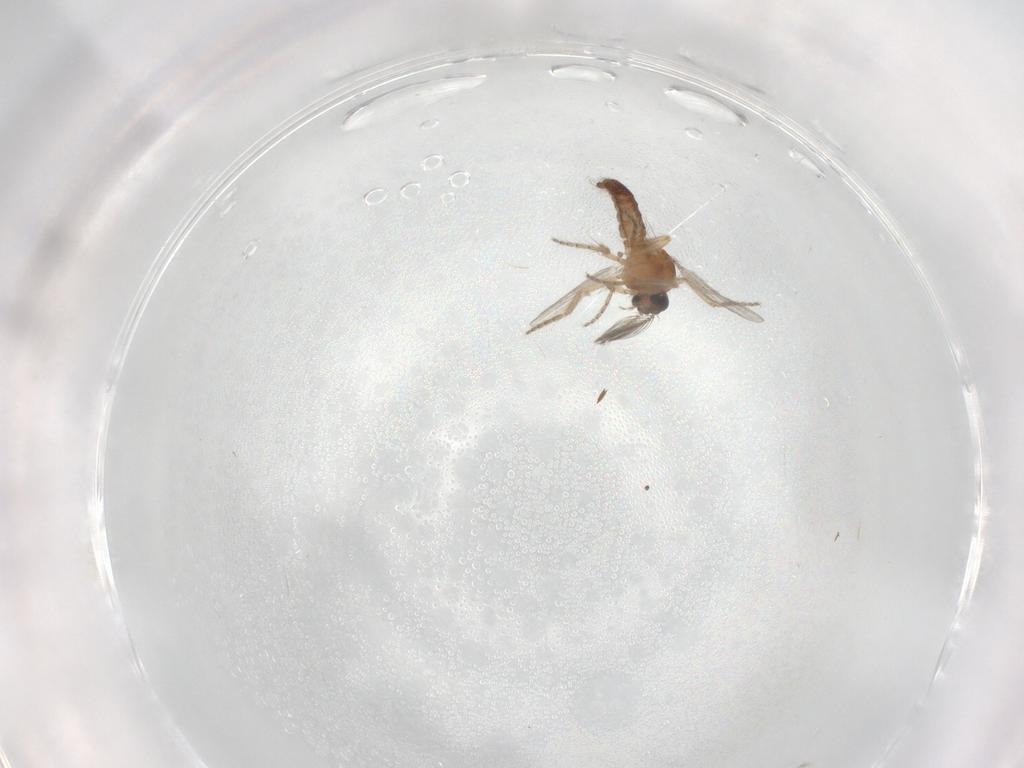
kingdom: Animalia
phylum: Arthropoda
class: Insecta
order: Diptera
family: Ceratopogonidae
